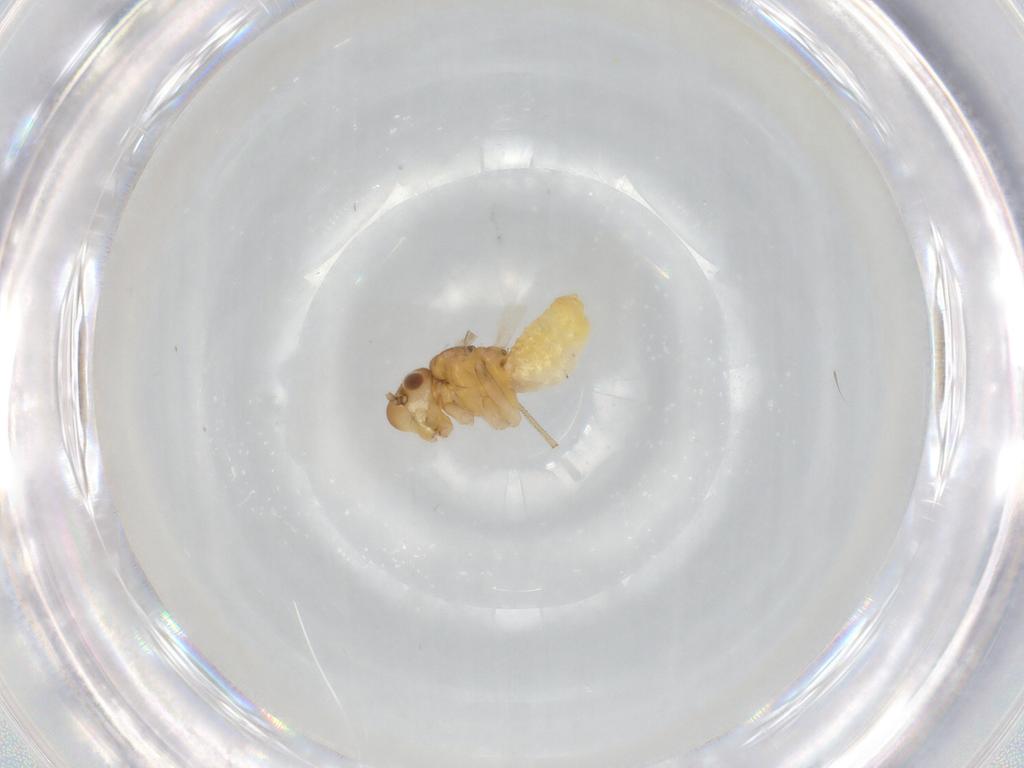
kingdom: Animalia
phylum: Arthropoda
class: Insecta
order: Psocodea
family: Caeciliusidae
